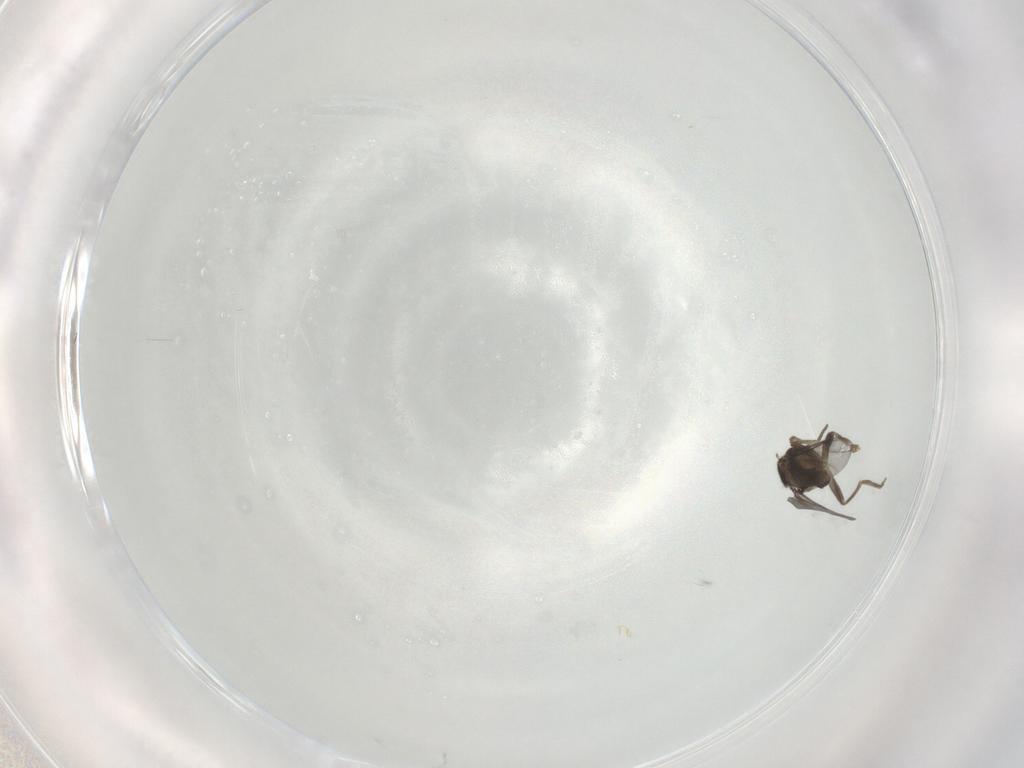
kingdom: Animalia
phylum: Arthropoda
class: Insecta
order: Diptera
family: Chironomidae
